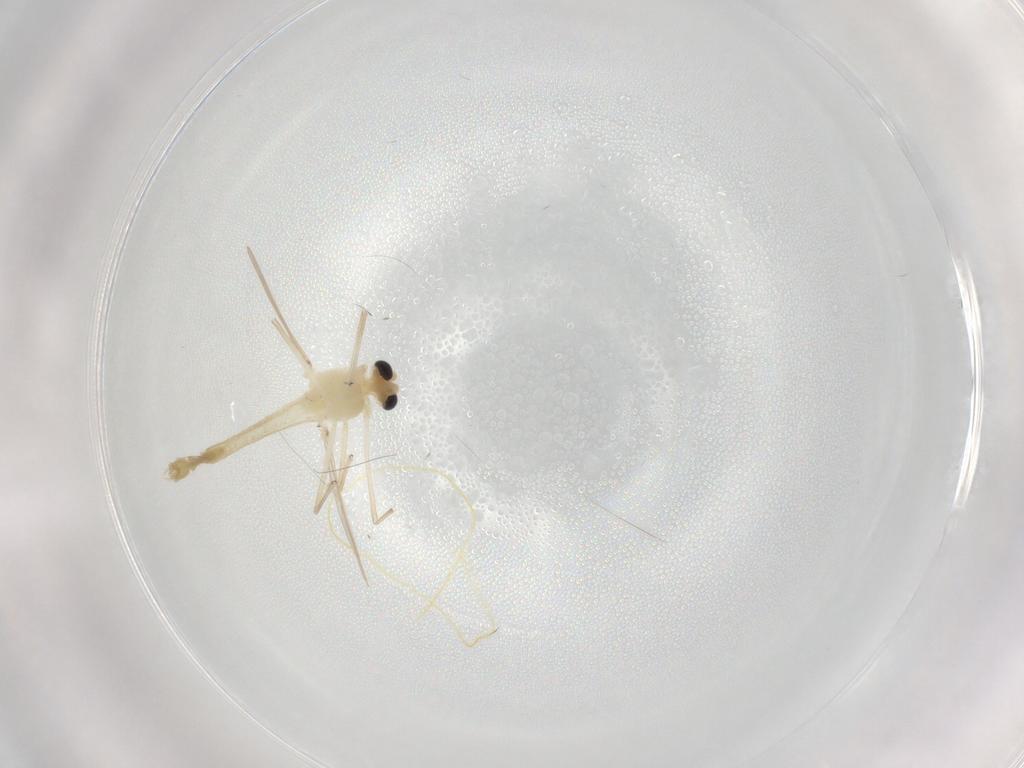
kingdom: Animalia
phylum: Arthropoda
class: Insecta
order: Diptera
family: Chironomidae
